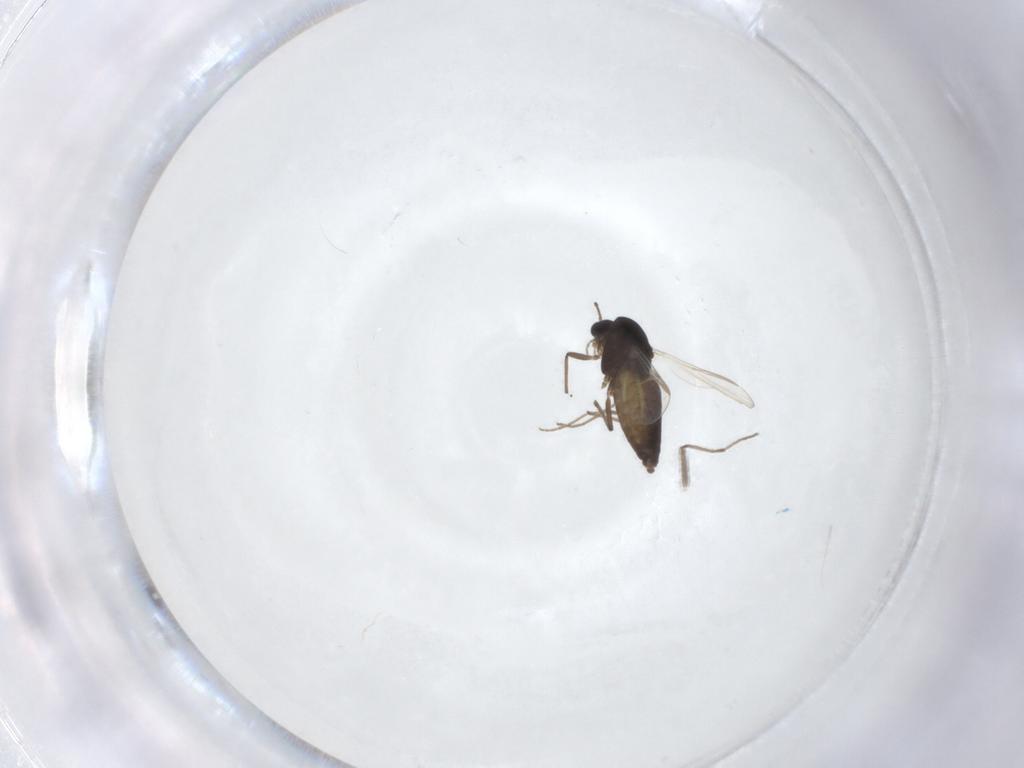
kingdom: Animalia
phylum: Arthropoda
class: Insecta
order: Diptera
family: Chironomidae
